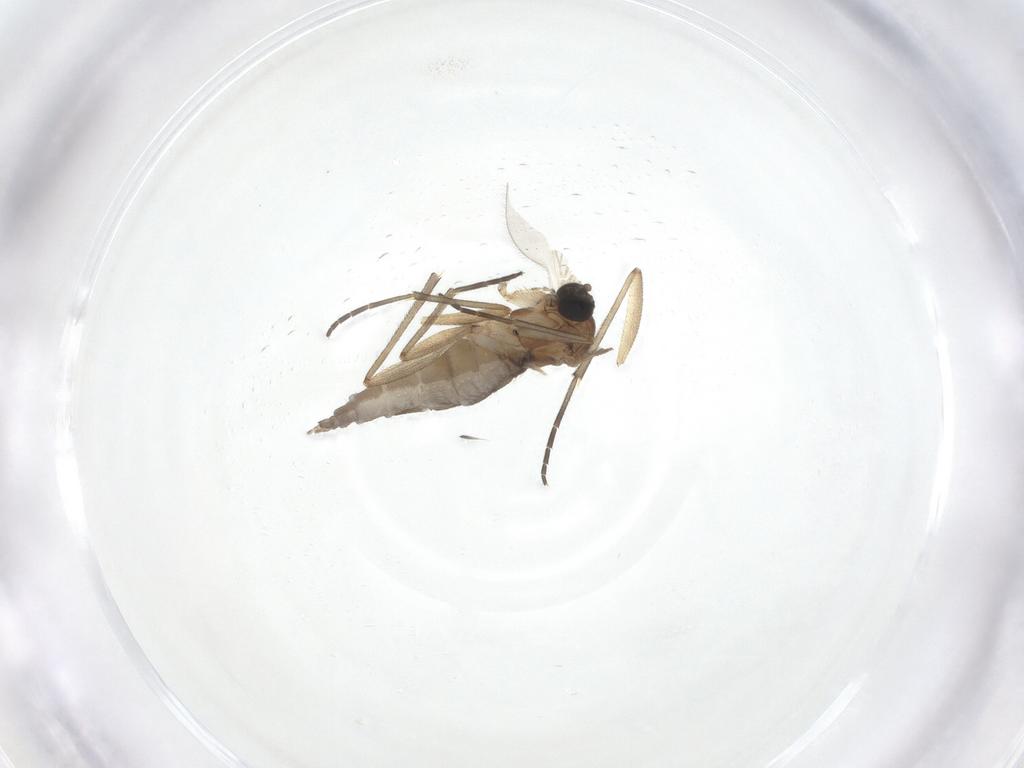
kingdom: Animalia
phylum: Arthropoda
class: Insecta
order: Diptera
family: Sciaridae
